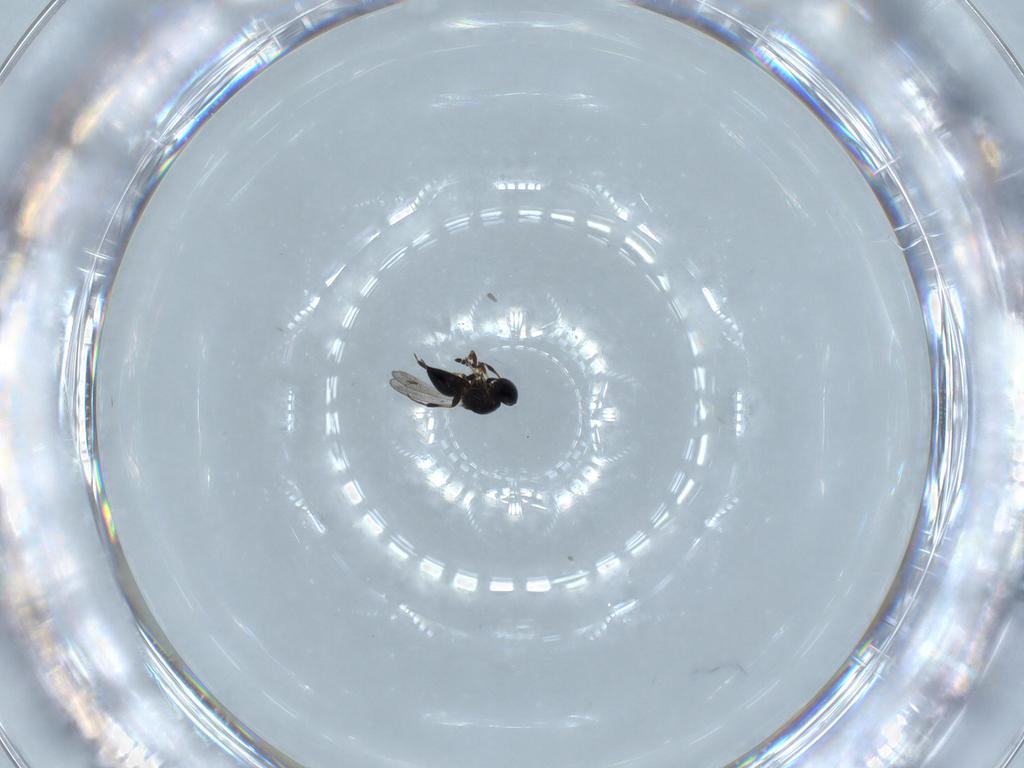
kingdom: Animalia
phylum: Arthropoda
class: Insecta
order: Hymenoptera
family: Platygastridae
